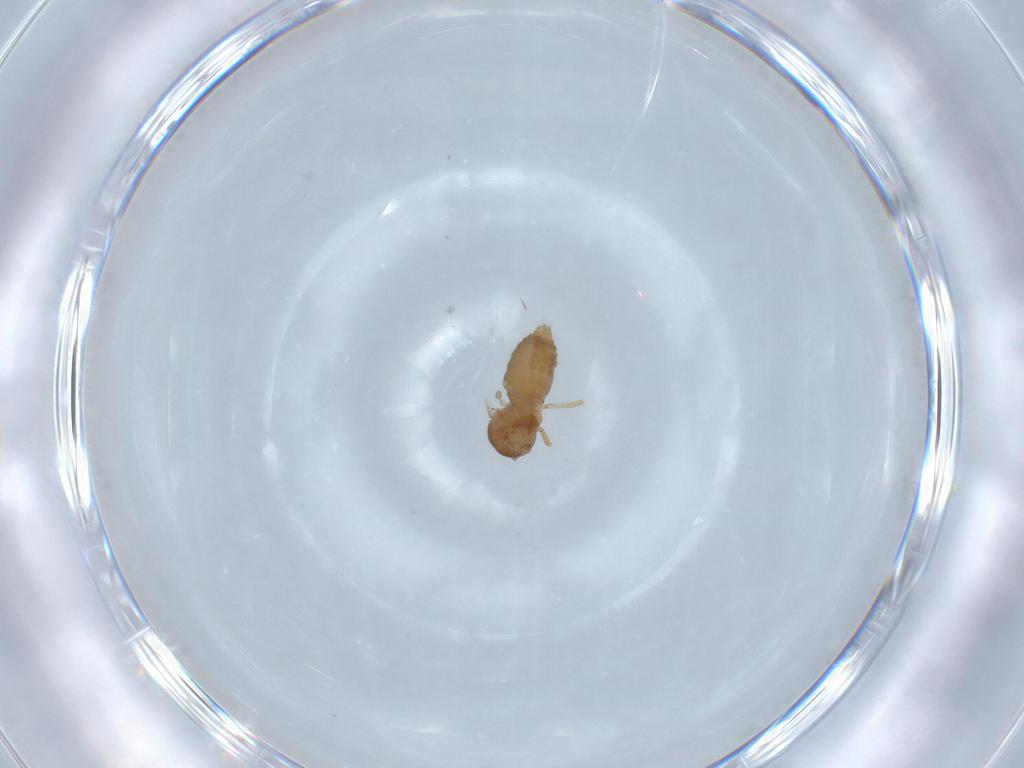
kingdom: Animalia
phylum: Arthropoda
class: Insecta
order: Diptera
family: Ceratopogonidae
